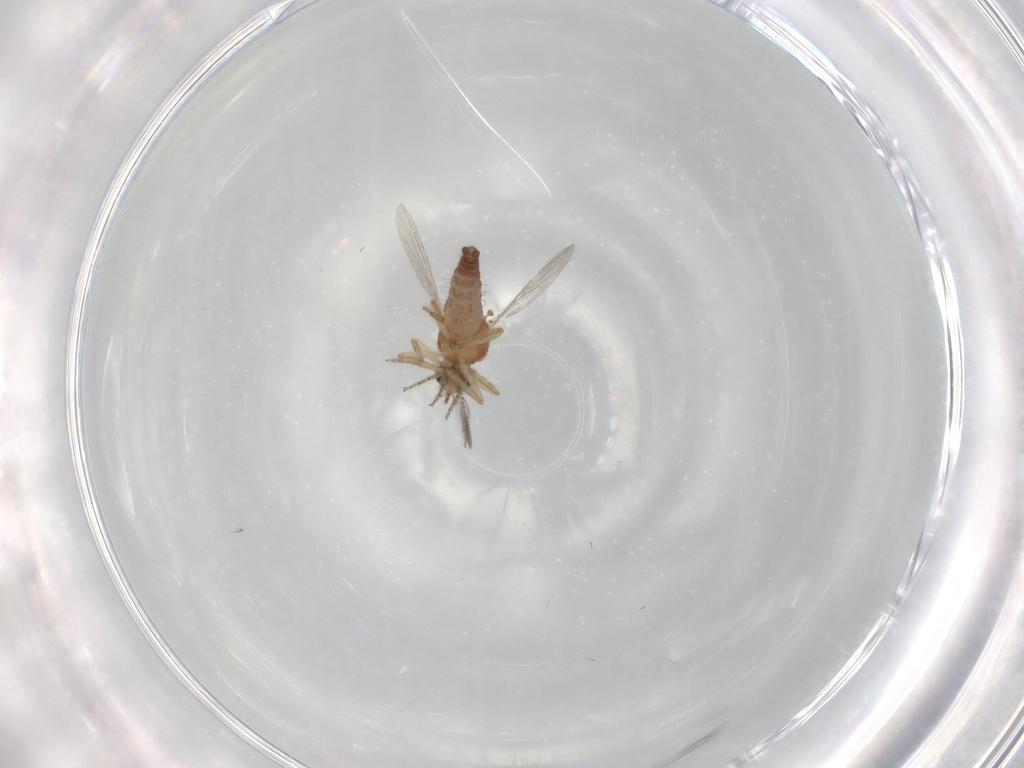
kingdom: Animalia
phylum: Arthropoda
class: Insecta
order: Diptera
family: Ceratopogonidae
